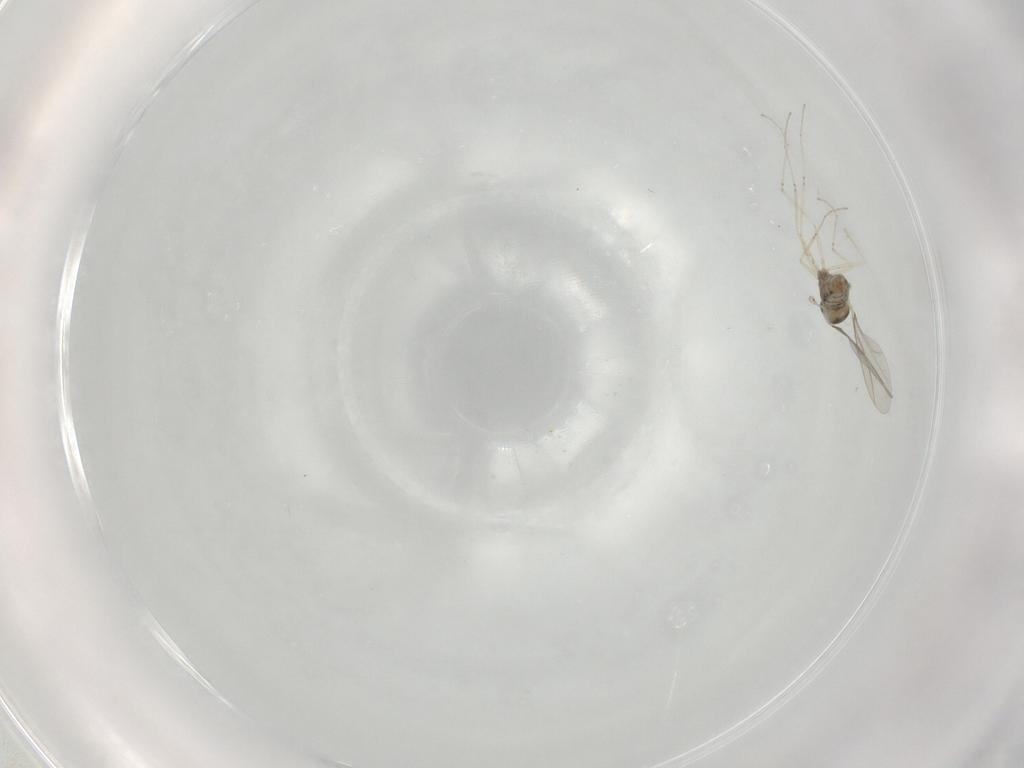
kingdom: Animalia
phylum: Arthropoda
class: Insecta
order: Diptera
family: Cecidomyiidae
